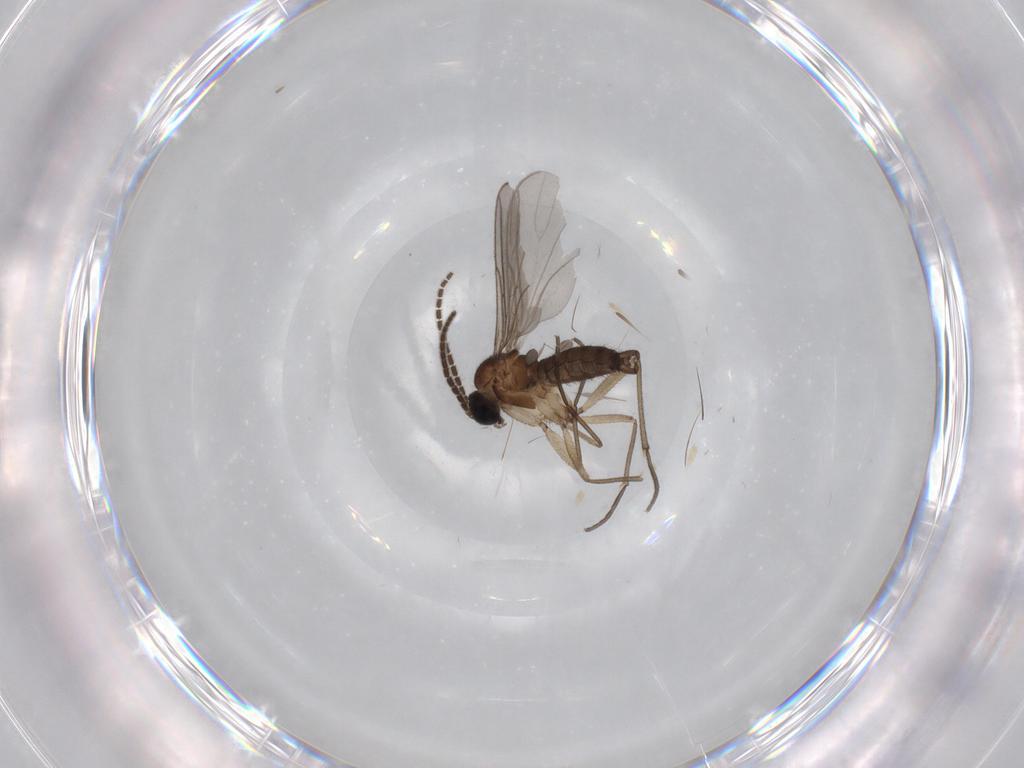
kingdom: Animalia
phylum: Arthropoda
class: Insecta
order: Diptera
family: Sciaridae
